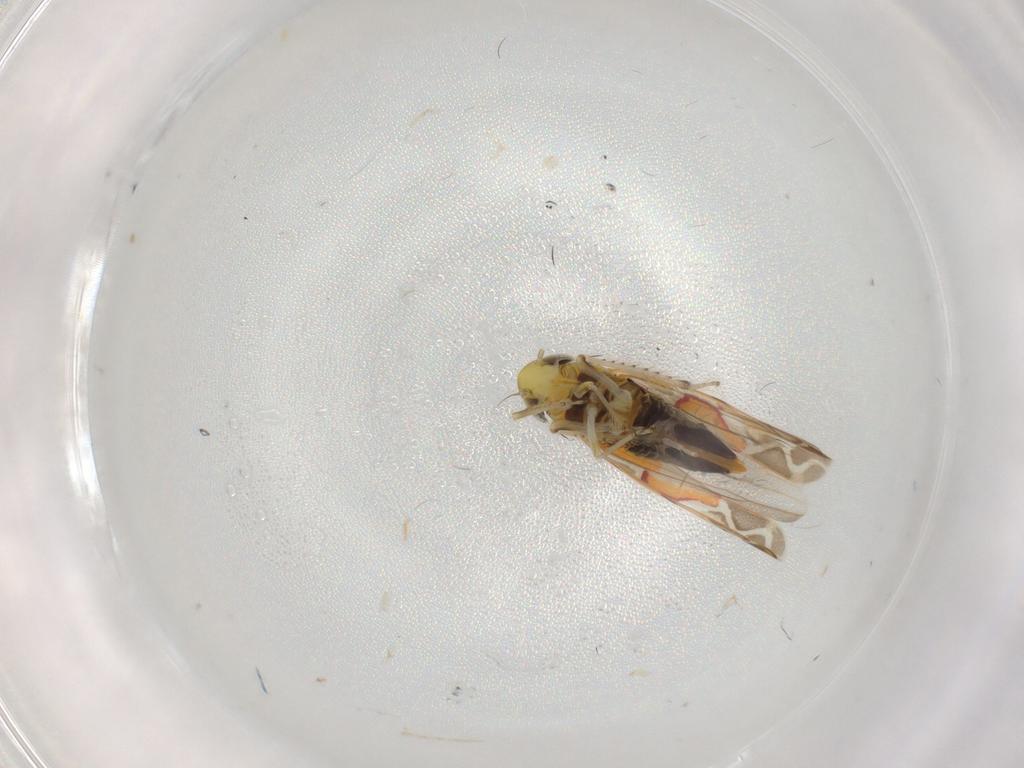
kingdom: Animalia
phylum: Arthropoda
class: Insecta
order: Hemiptera
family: Cicadellidae
